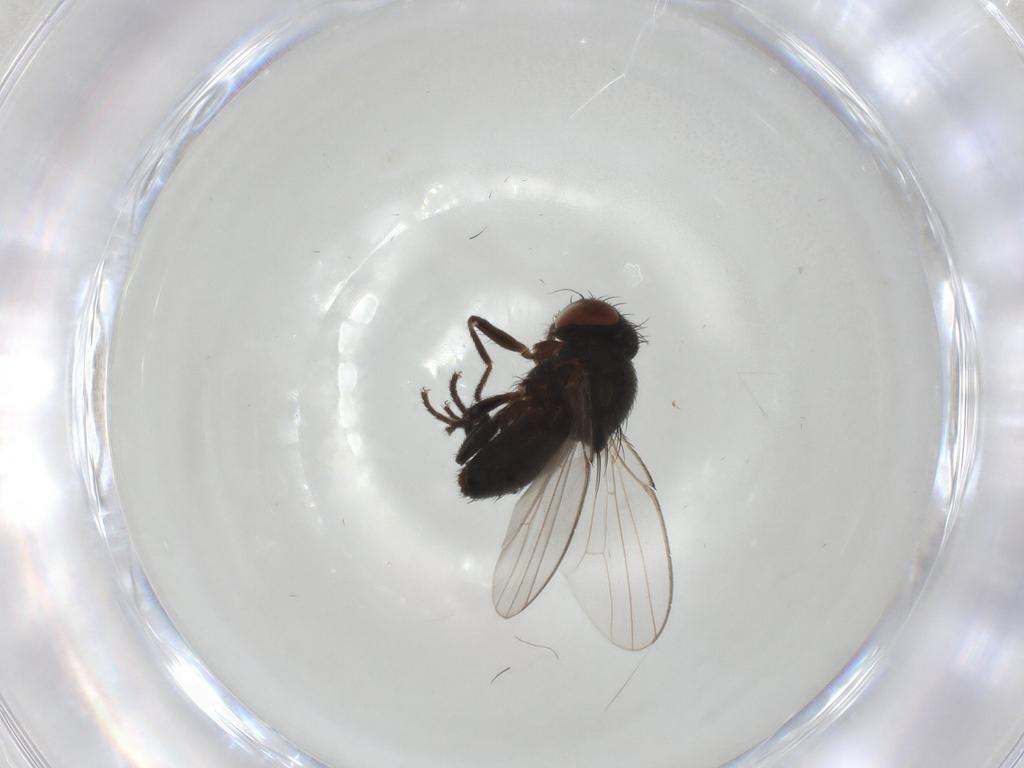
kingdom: Animalia
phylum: Arthropoda
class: Insecta
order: Diptera
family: Chloropidae
